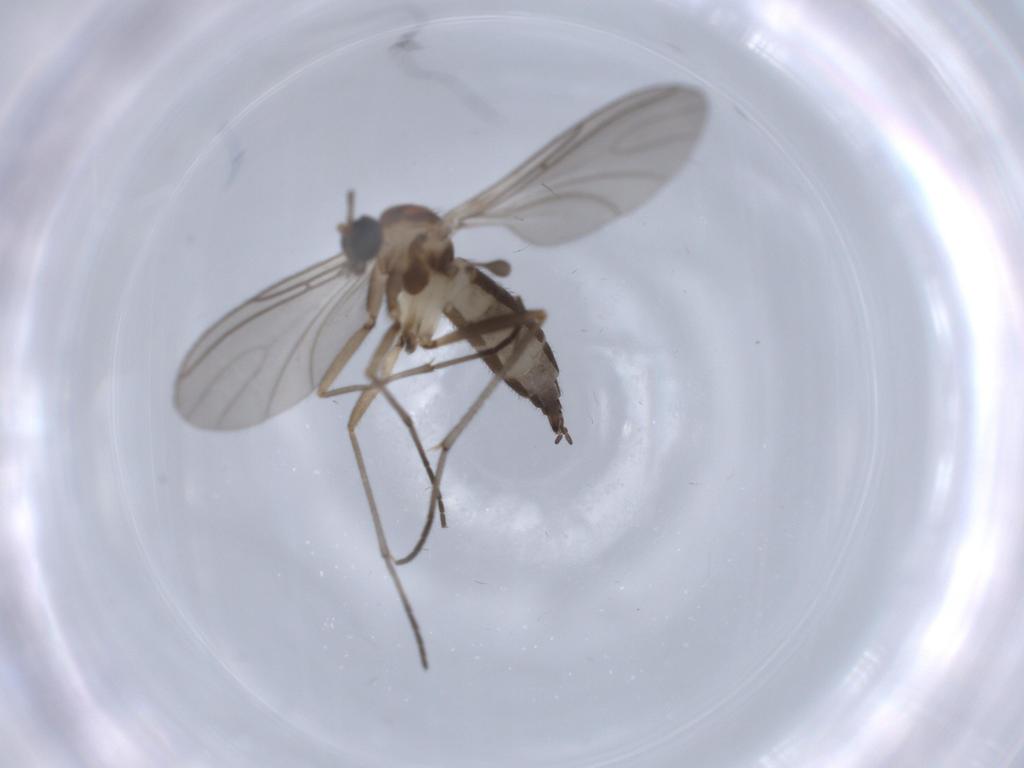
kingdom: Animalia
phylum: Arthropoda
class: Insecta
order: Diptera
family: Sciaridae
